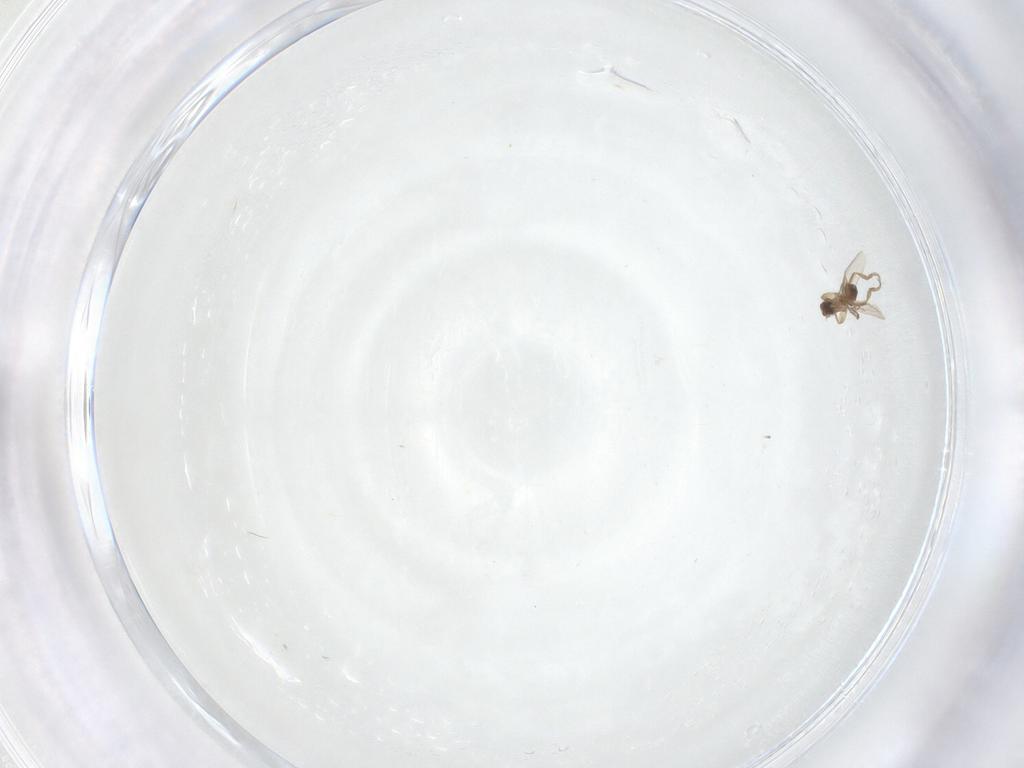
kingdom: Animalia
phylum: Arthropoda
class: Insecta
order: Diptera
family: Phoridae
